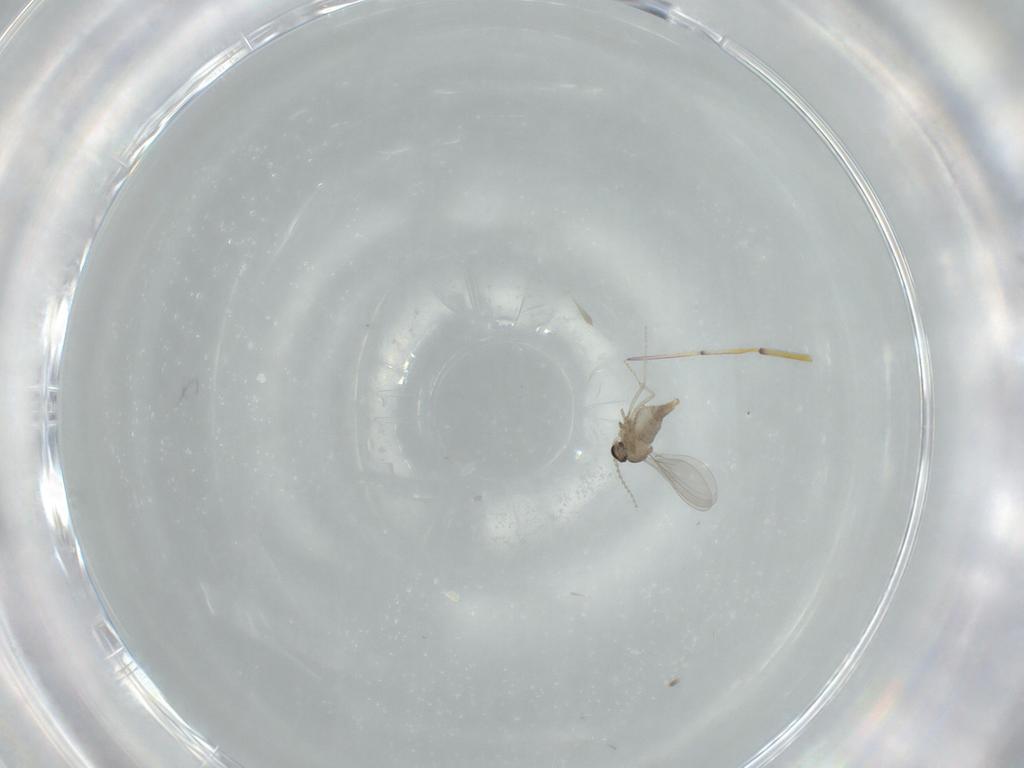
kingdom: Animalia
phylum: Arthropoda
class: Insecta
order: Diptera
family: Cecidomyiidae
